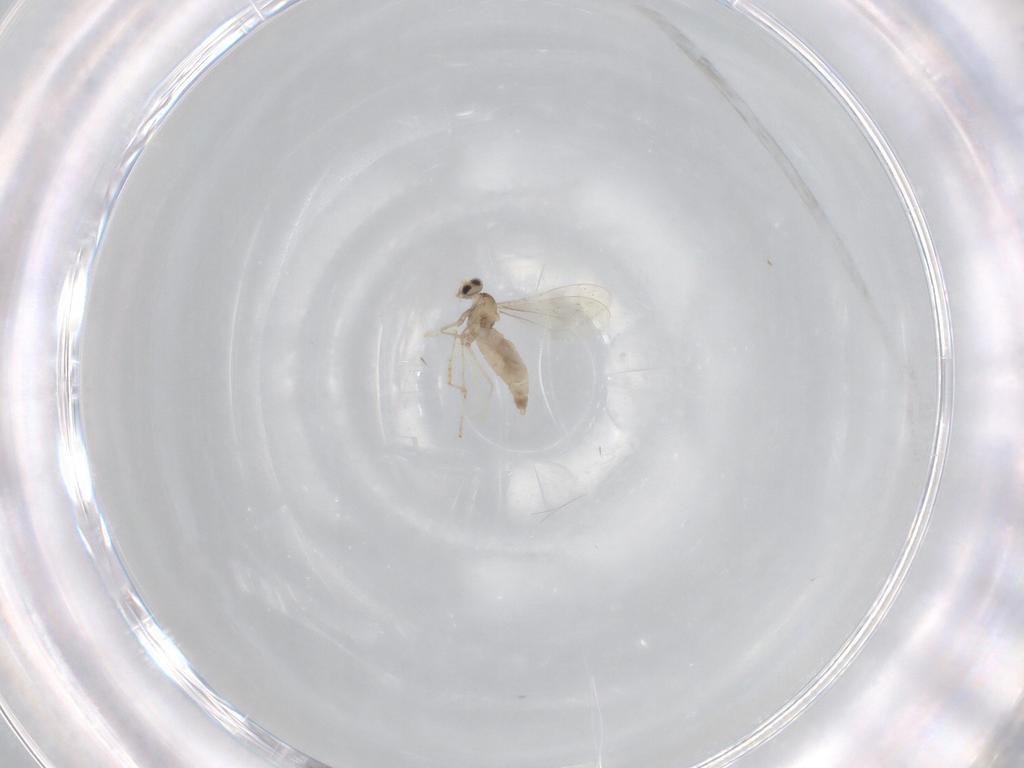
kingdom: Animalia
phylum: Arthropoda
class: Insecta
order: Diptera
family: Cecidomyiidae
